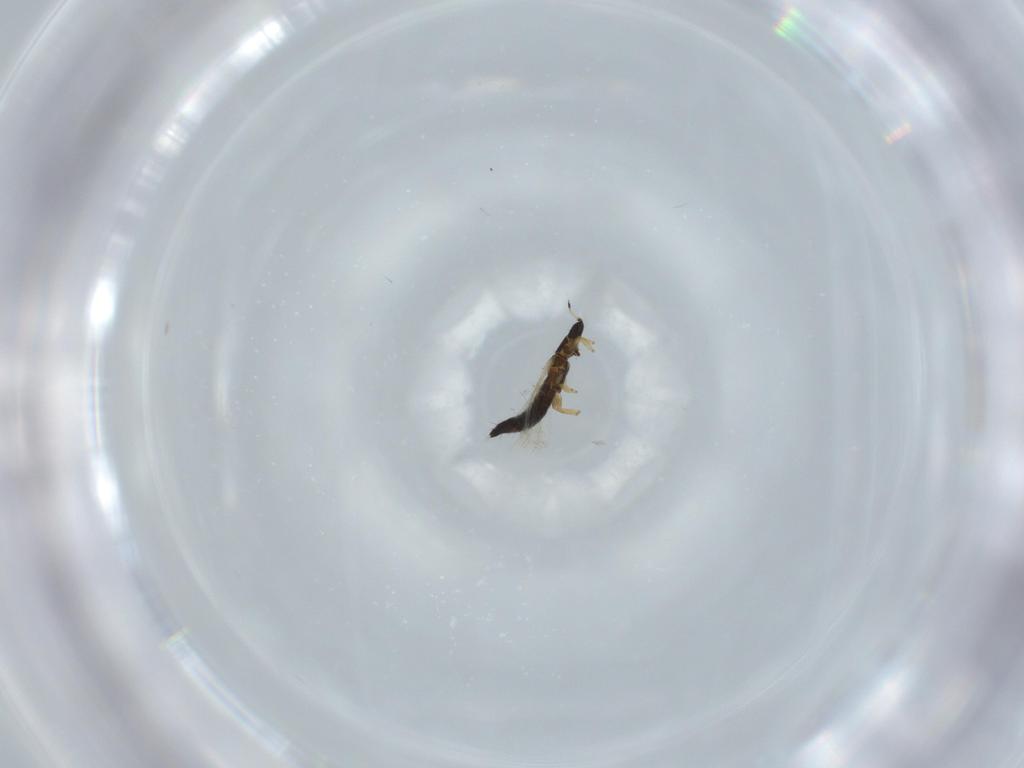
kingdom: Animalia
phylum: Arthropoda
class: Insecta
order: Thysanoptera
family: Thripidae
